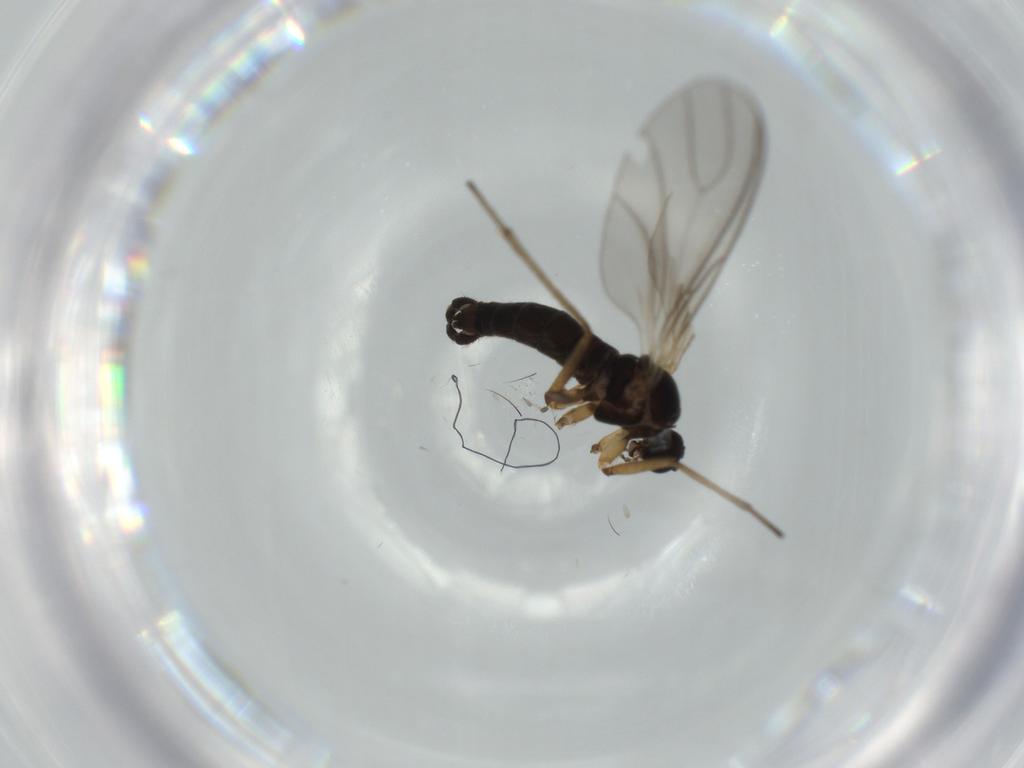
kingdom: Animalia
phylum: Arthropoda
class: Insecta
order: Diptera
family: Sciaridae
